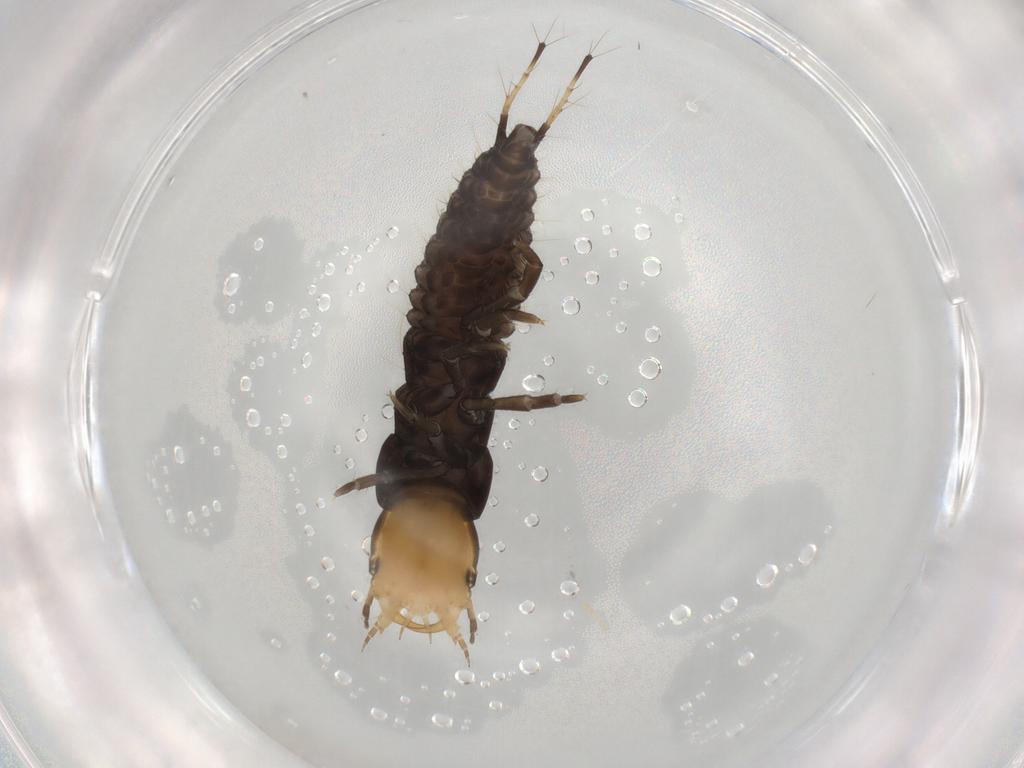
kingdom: Animalia
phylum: Arthropoda
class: Insecta
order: Coleoptera
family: Carabidae
